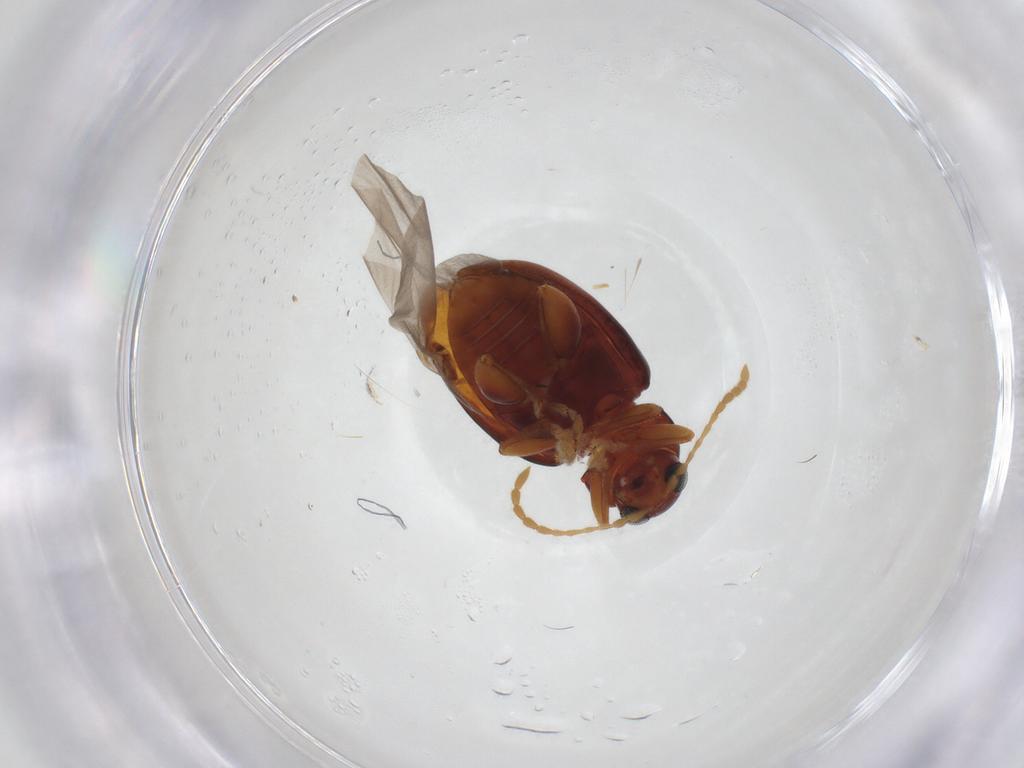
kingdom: Animalia
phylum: Arthropoda
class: Insecta
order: Coleoptera
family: Chrysomelidae
